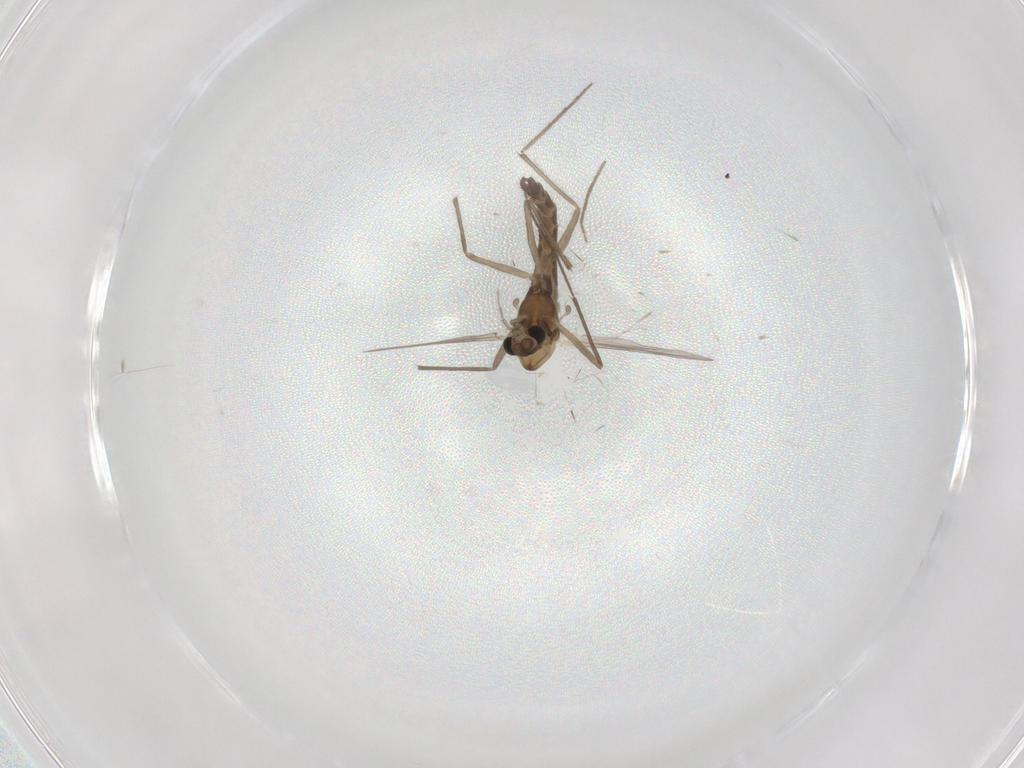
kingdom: Animalia
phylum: Arthropoda
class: Insecta
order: Diptera
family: Chironomidae
